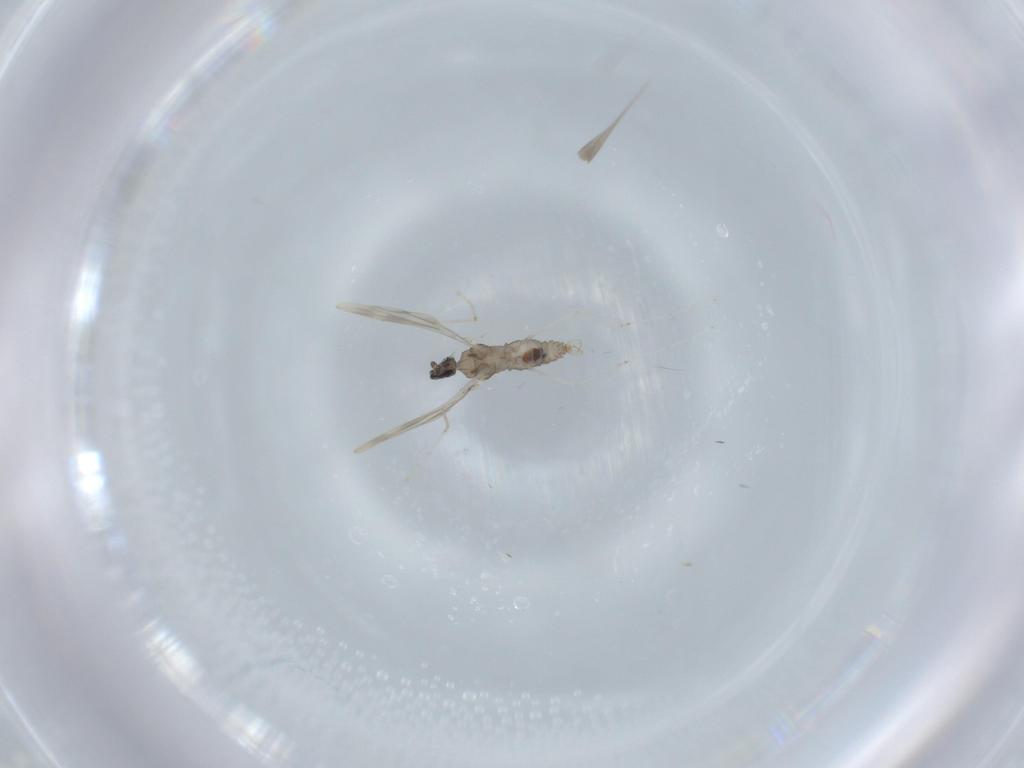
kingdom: Animalia
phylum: Arthropoda
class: Insecta
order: Diptera
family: Cecidomyiidae
